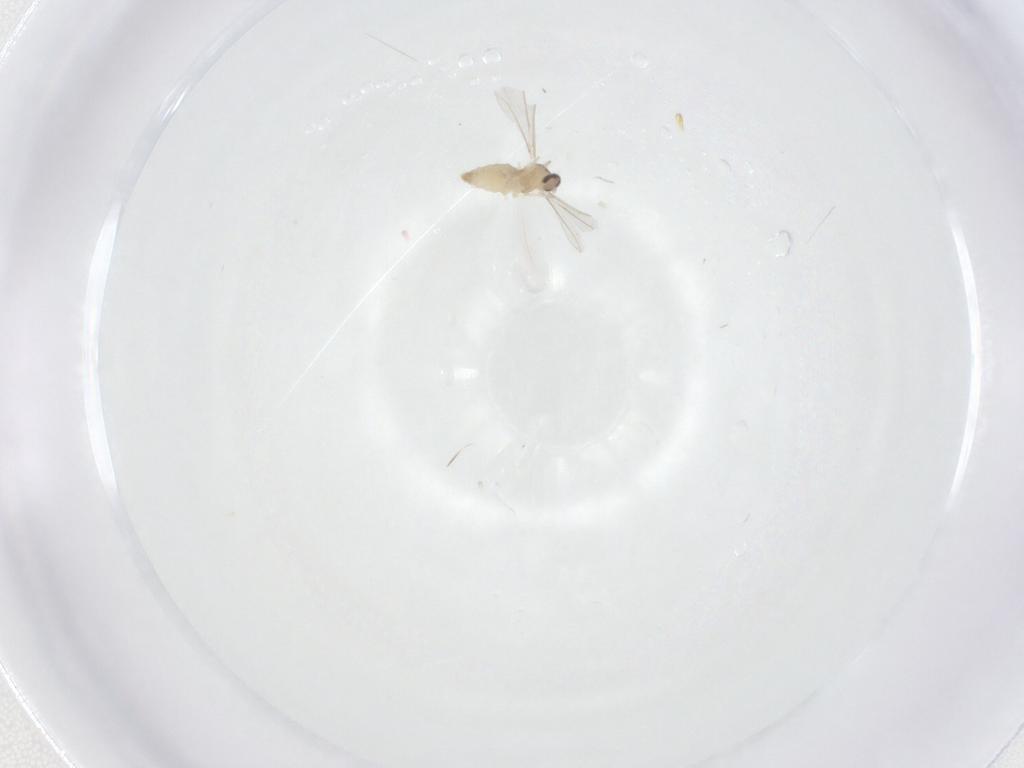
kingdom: Animalia
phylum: Arthropoda
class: Insecta
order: Diptera
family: Cecidomyiidae
